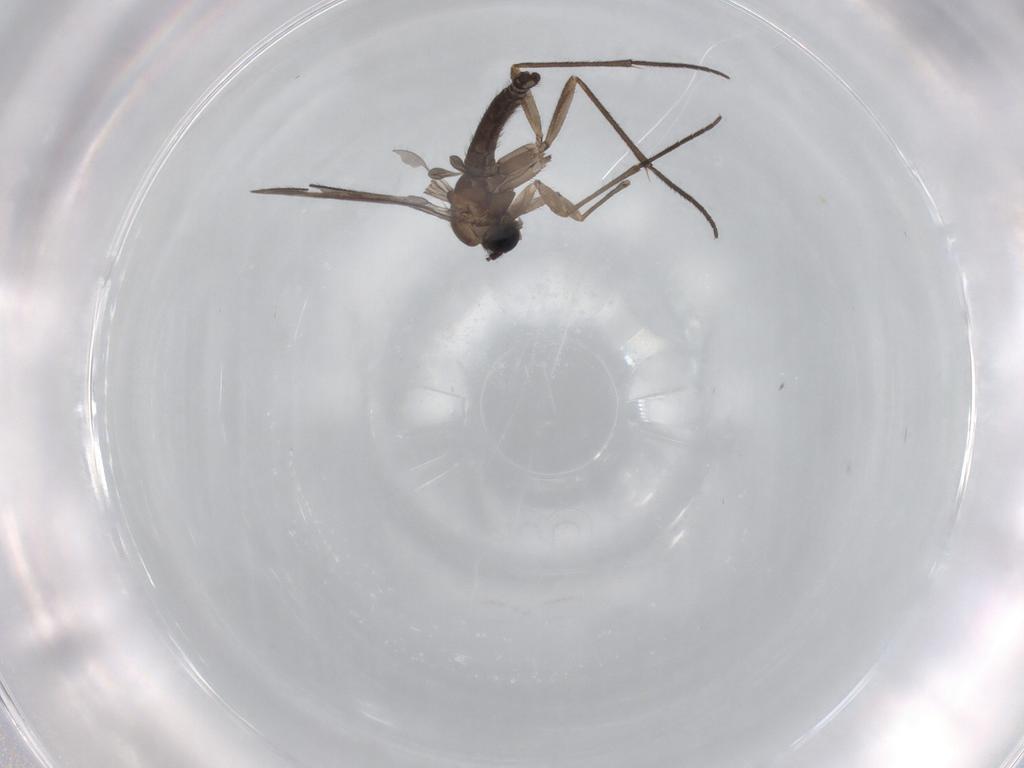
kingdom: Animalia
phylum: Arthropoda
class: Insecta
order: Diptera
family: Sciaridae
